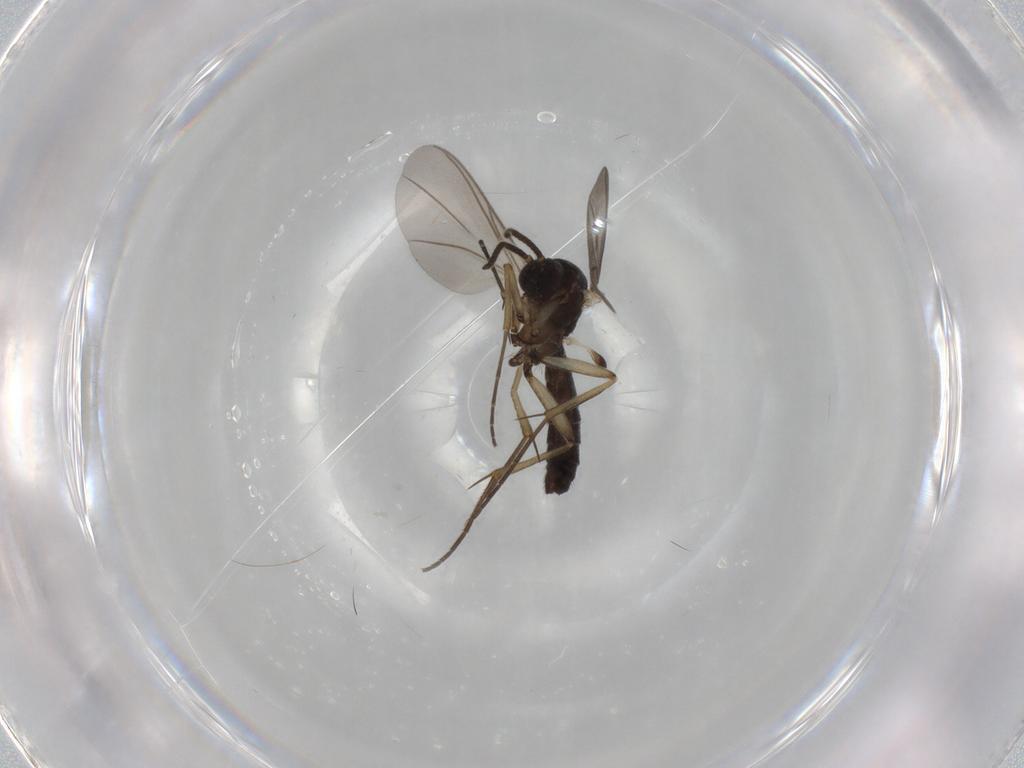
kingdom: Animalia
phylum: Arthropoda
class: Insecta
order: Diptera
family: Mycetophilidae
